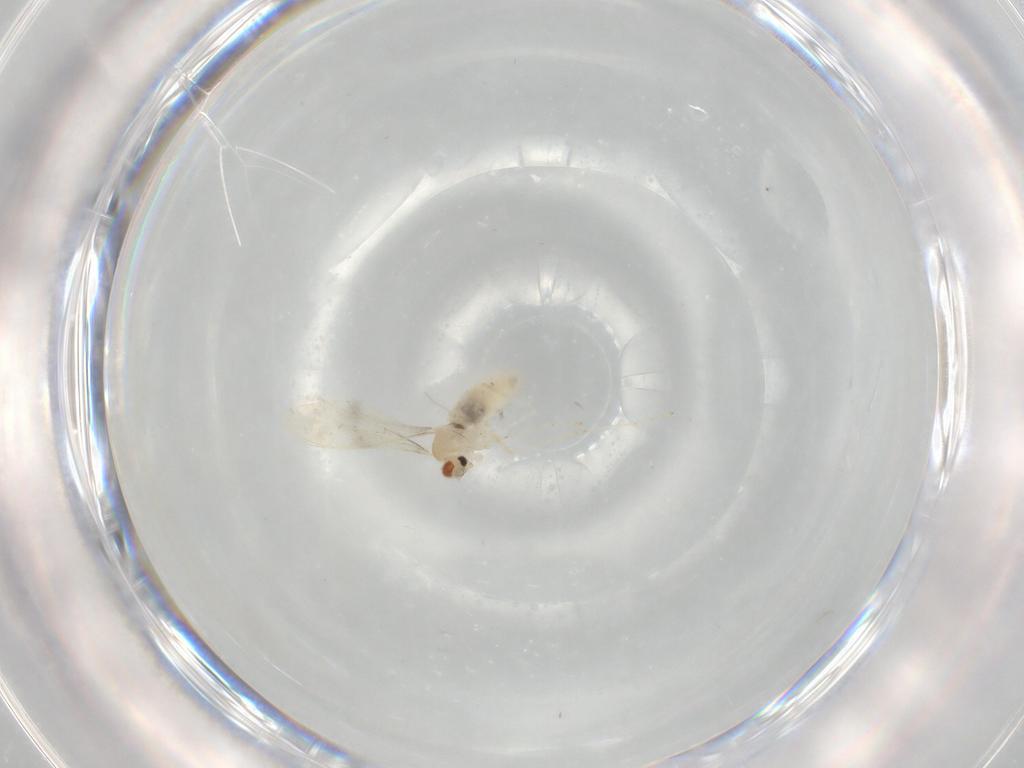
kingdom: Animalia
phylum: Arthropoda
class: Insecta
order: Diptera
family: Cecidomyiidae
